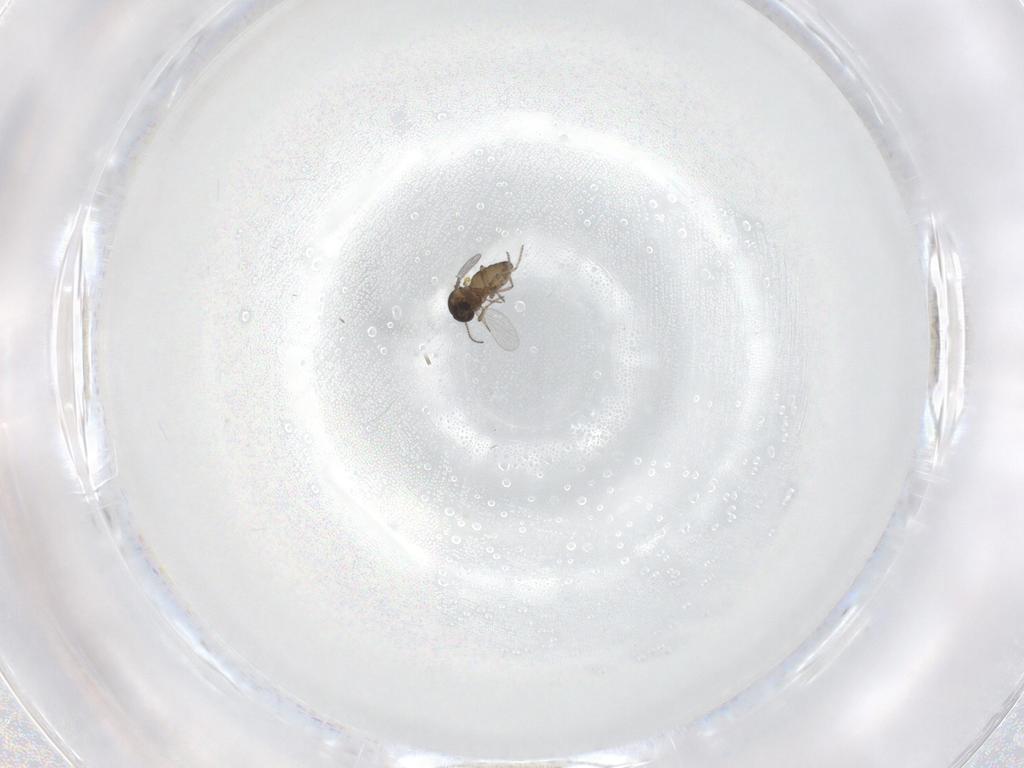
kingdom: Animalia
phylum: Arthropoda
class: Insecta
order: Diptera
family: Ceratopogonidae
